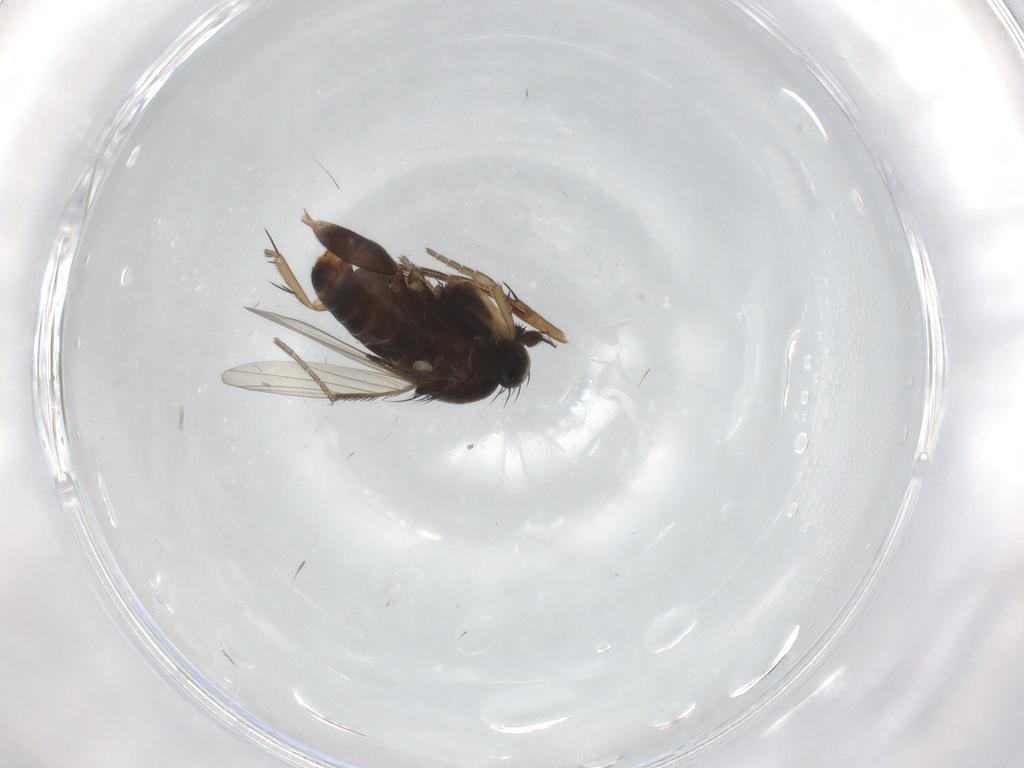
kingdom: Animalia
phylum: Arthropoda
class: Insecta
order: Diptera
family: Phoridae
